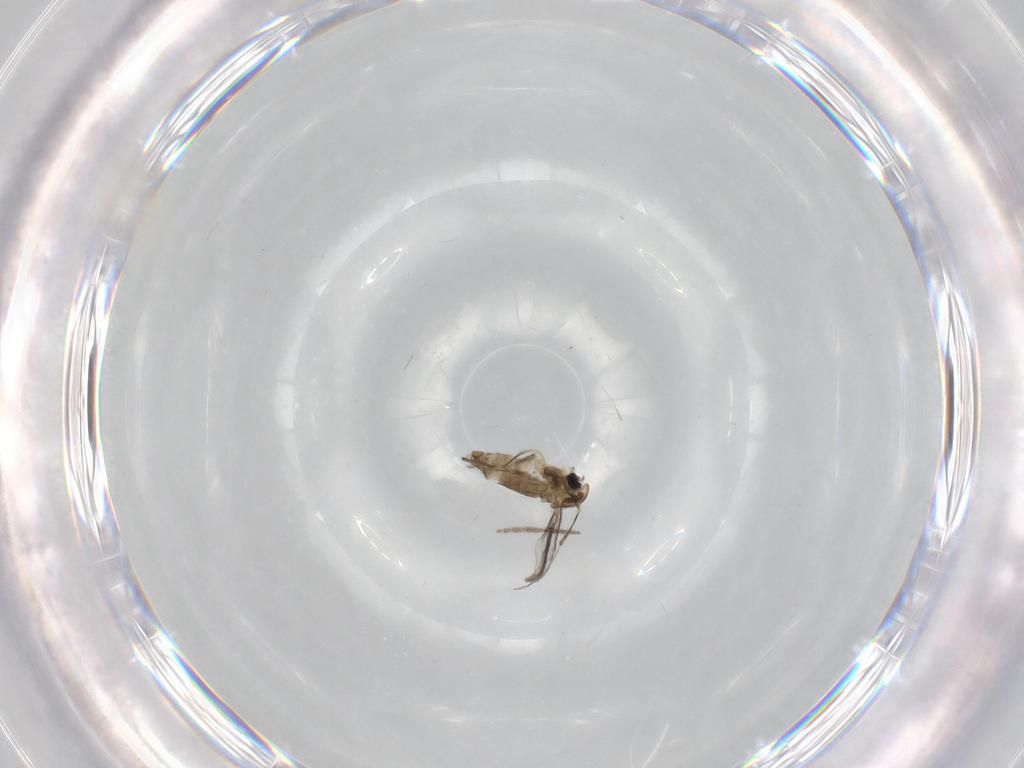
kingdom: Animalia
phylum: Arthropoda
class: Insecta
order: Diptera
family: Chironomidae
